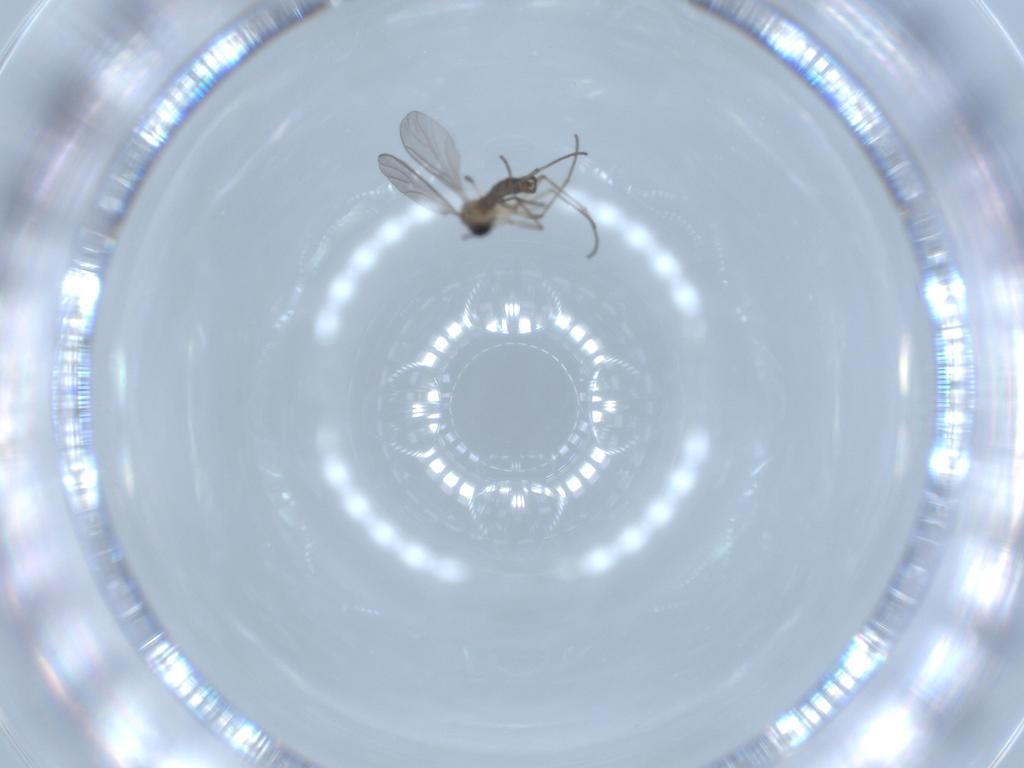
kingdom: Animalia
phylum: Arthropoda
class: Insecta
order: Diptera
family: Sciaridae
